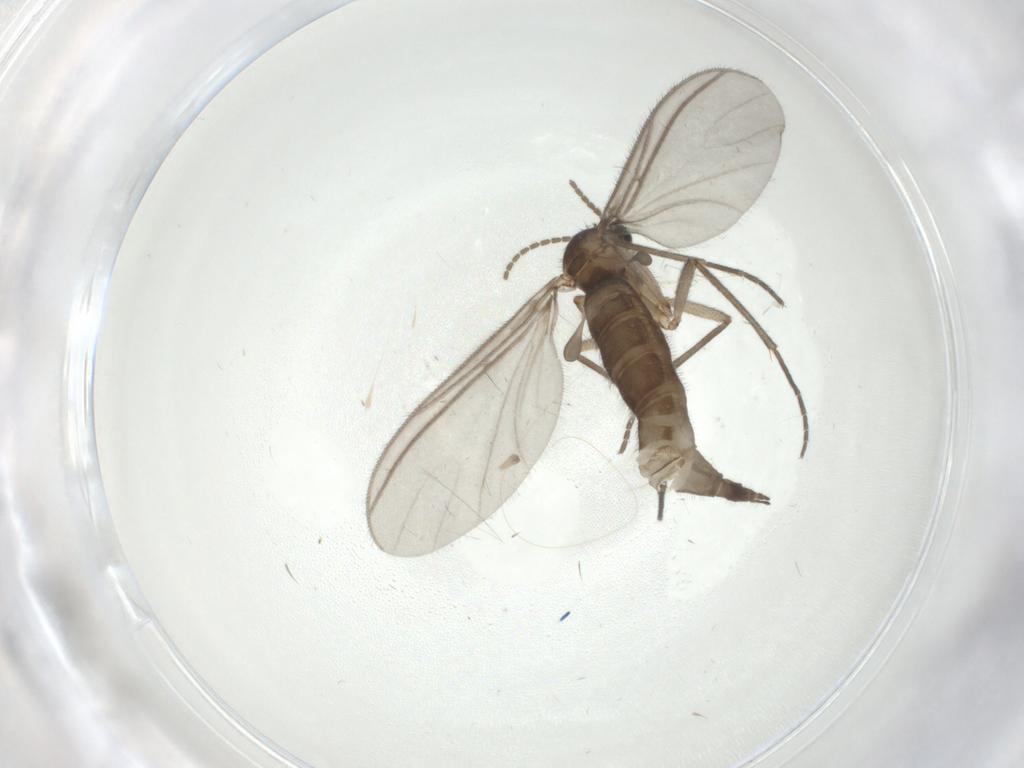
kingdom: Animalia
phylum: Arthropoda
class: Insecta
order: Diptera
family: Sciaridae
